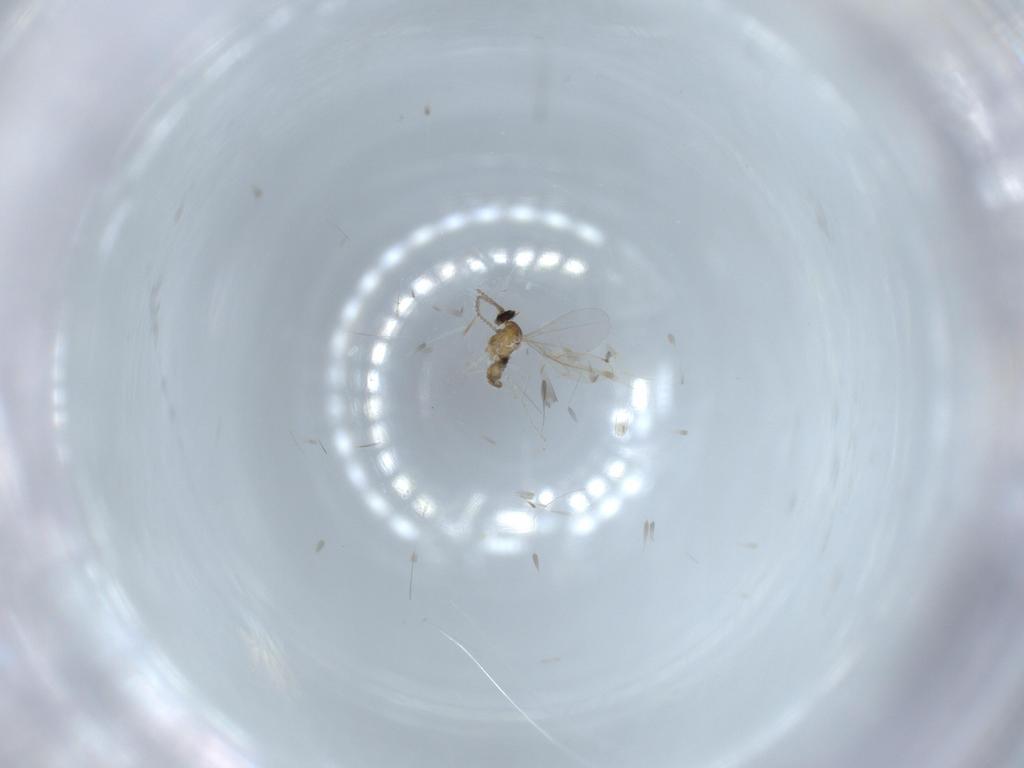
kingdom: Animalia
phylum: Arthropoda
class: Insecta
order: Diptera
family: Cecidomyiidae
